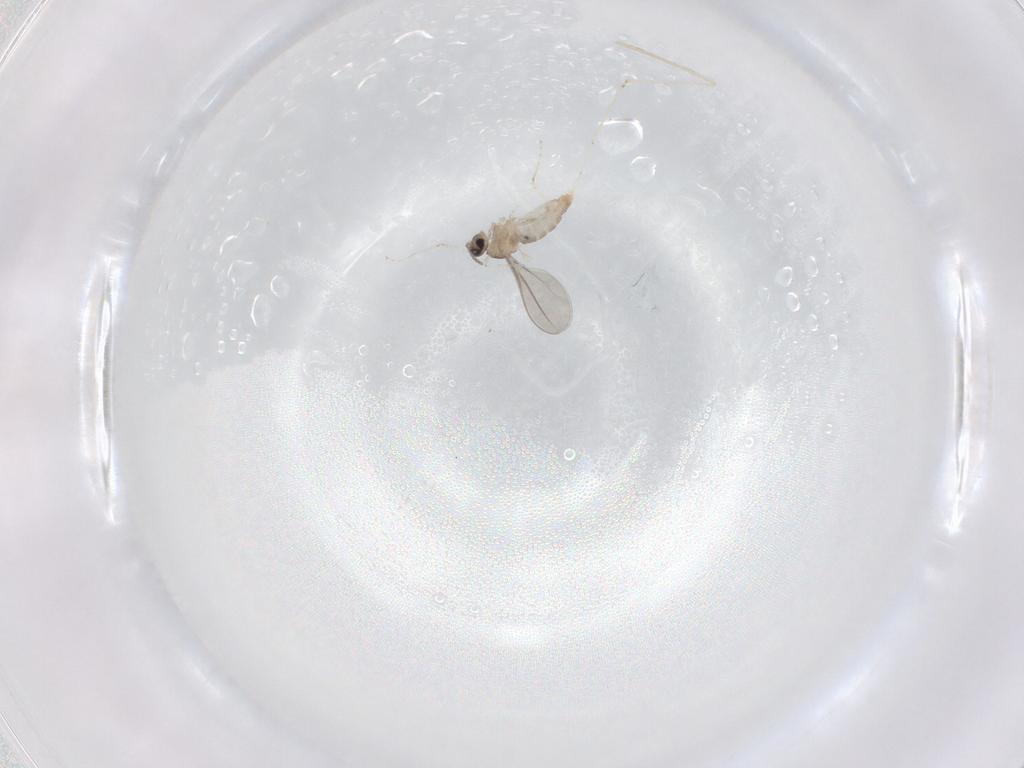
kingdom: Animalia
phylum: Arthropoda
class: Insecta
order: Diptera
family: Cecidomyiidae
